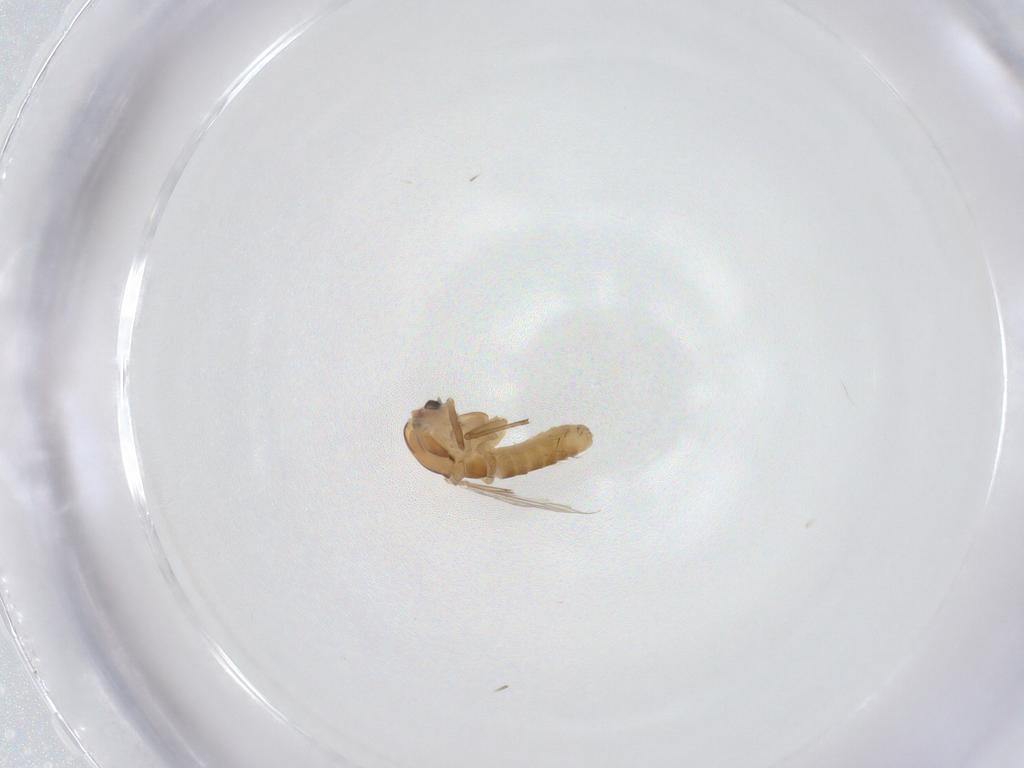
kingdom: Animalia
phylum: Arthropoda
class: Insecta
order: Diptera
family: Chironomidae
